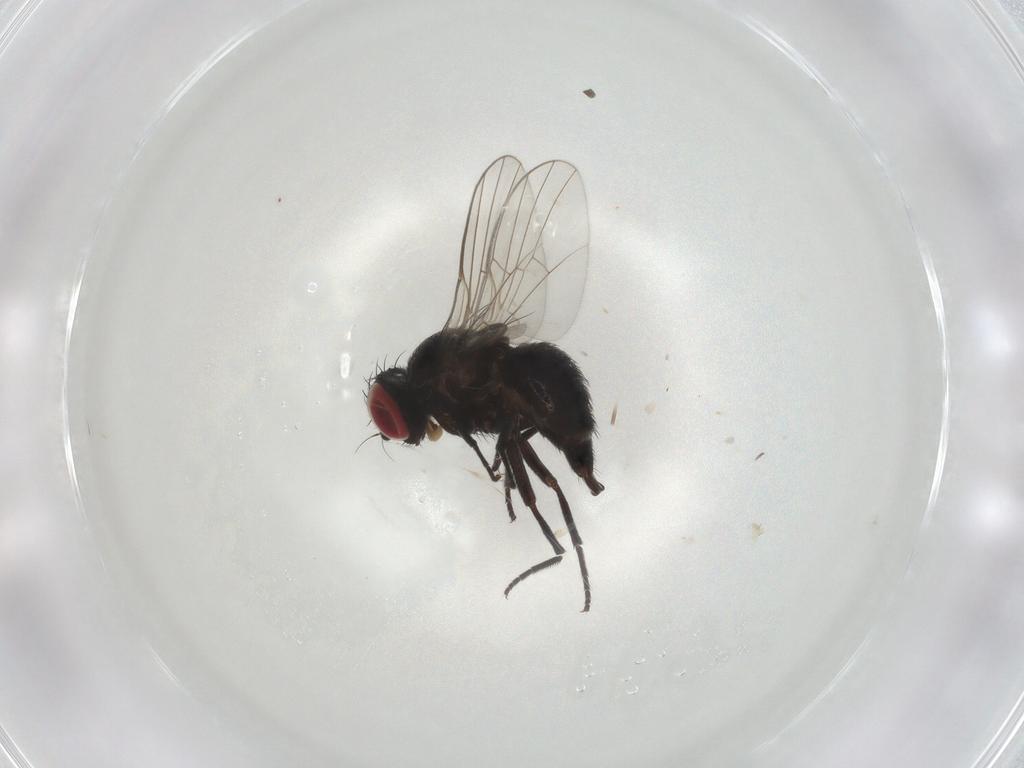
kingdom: Animalia
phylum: Arthropoda
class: Insecta
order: Diptera
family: Agromyzidae
